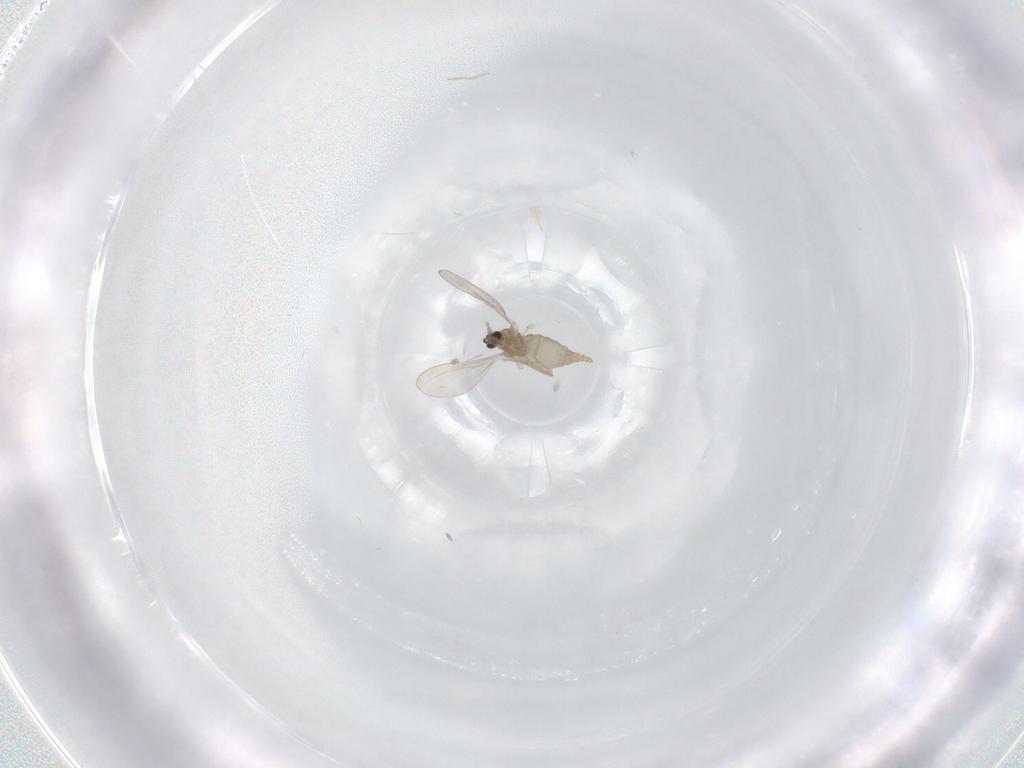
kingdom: Animalia
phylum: Arthropoda
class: Insecta
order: Diptera
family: Cecidomyiidae
